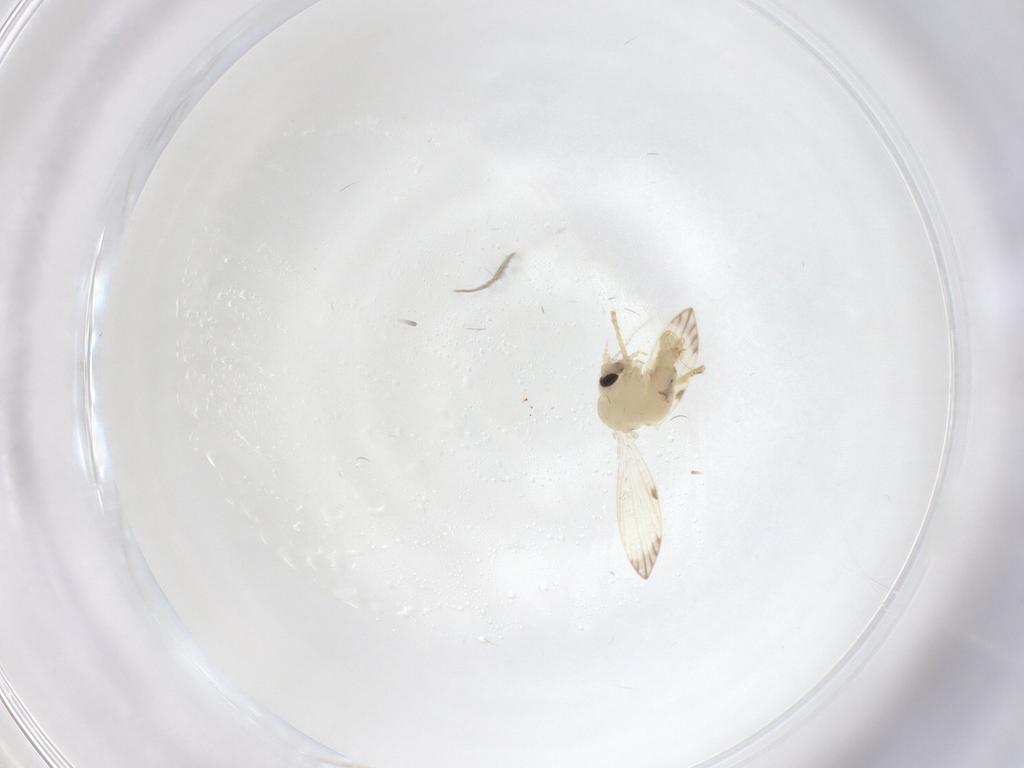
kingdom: Animalia
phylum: Arthropoda
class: Insecta
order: Diptera
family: Psychodidae
